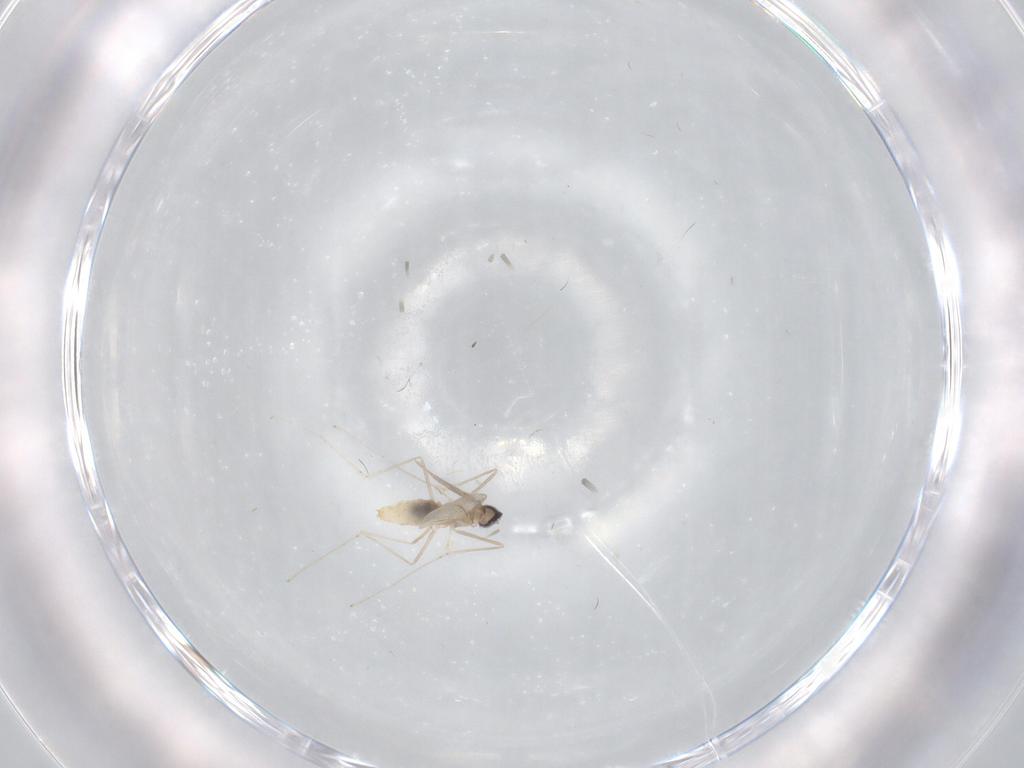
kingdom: Animalia
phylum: Arthropoda
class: Insecta
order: Diptera
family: Cecidomyiidae
